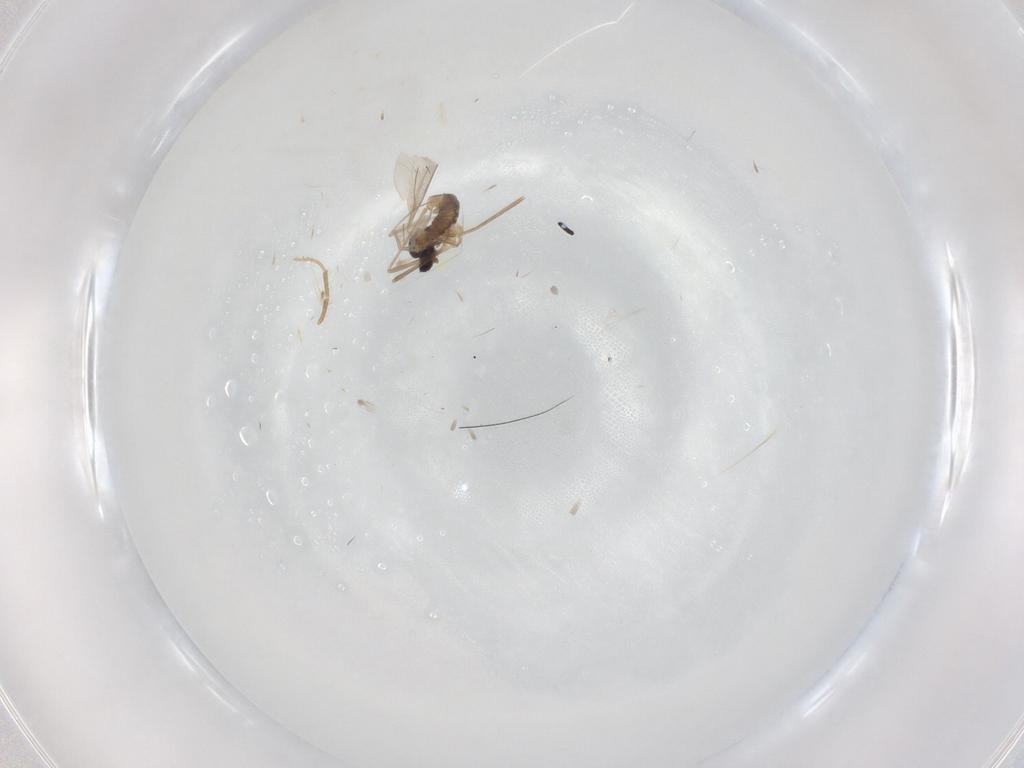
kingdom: Animalia
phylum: Arthropoda
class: Insecta
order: Diptera
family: Cecidomyiidae
